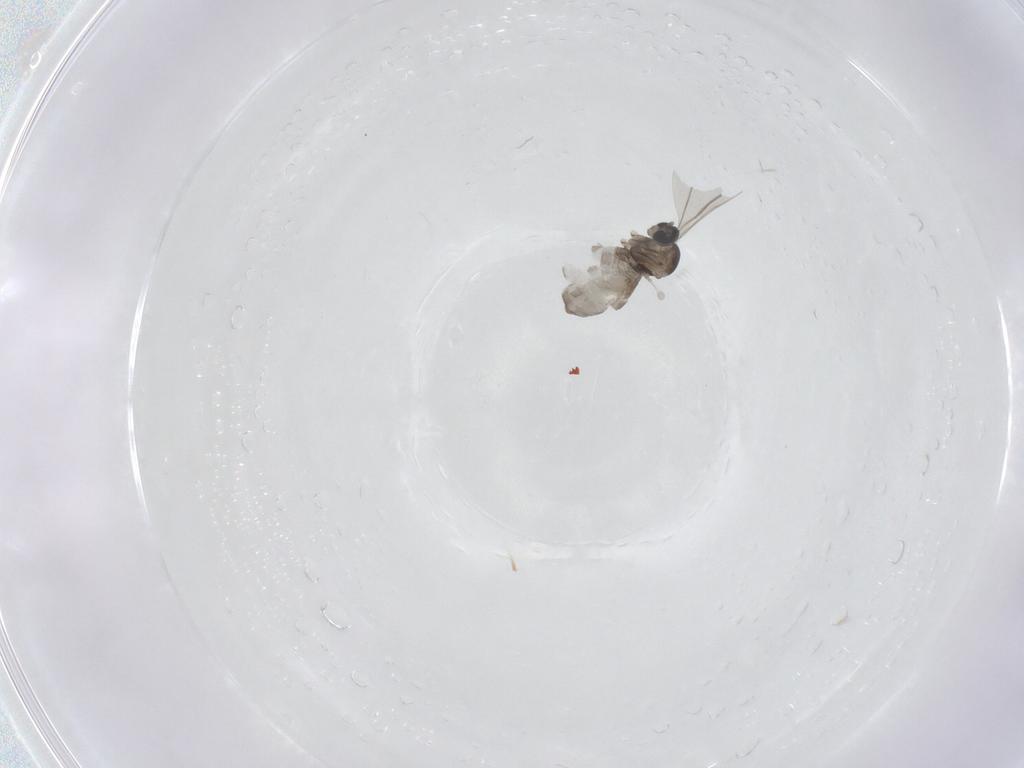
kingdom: Animalia
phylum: Arthropoda
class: Insecta
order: Diptera
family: Cecidomyiidae
